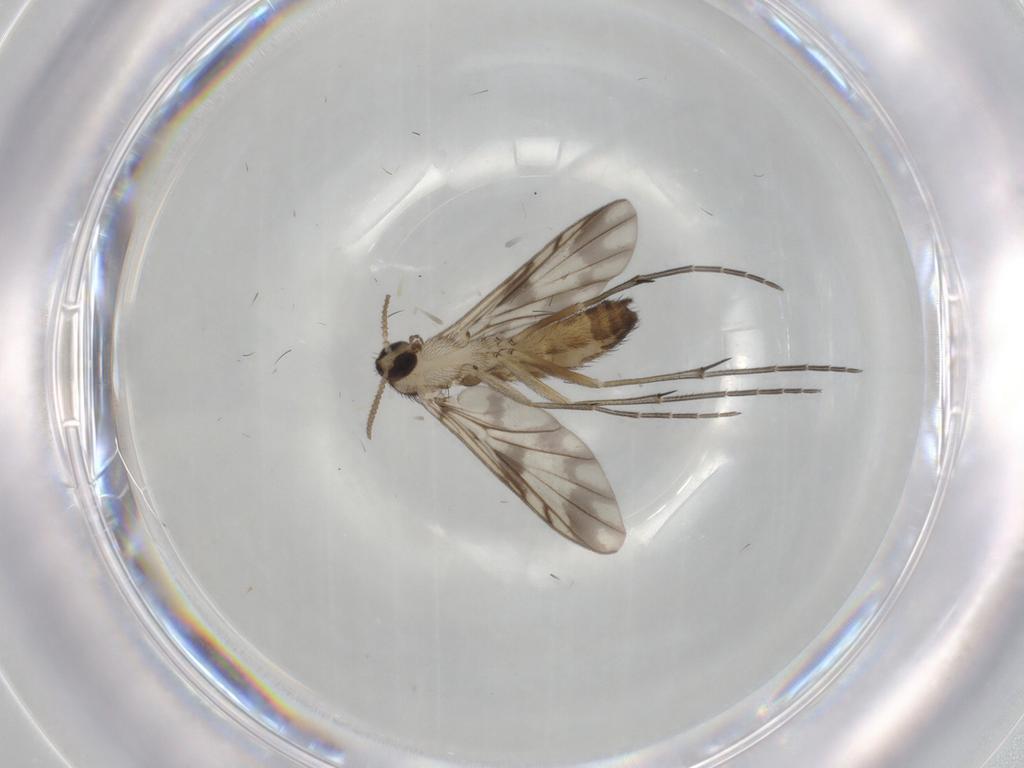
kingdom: Animalia
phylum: Arthropoda
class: Insecta
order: Diptera
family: Keroplatidae
